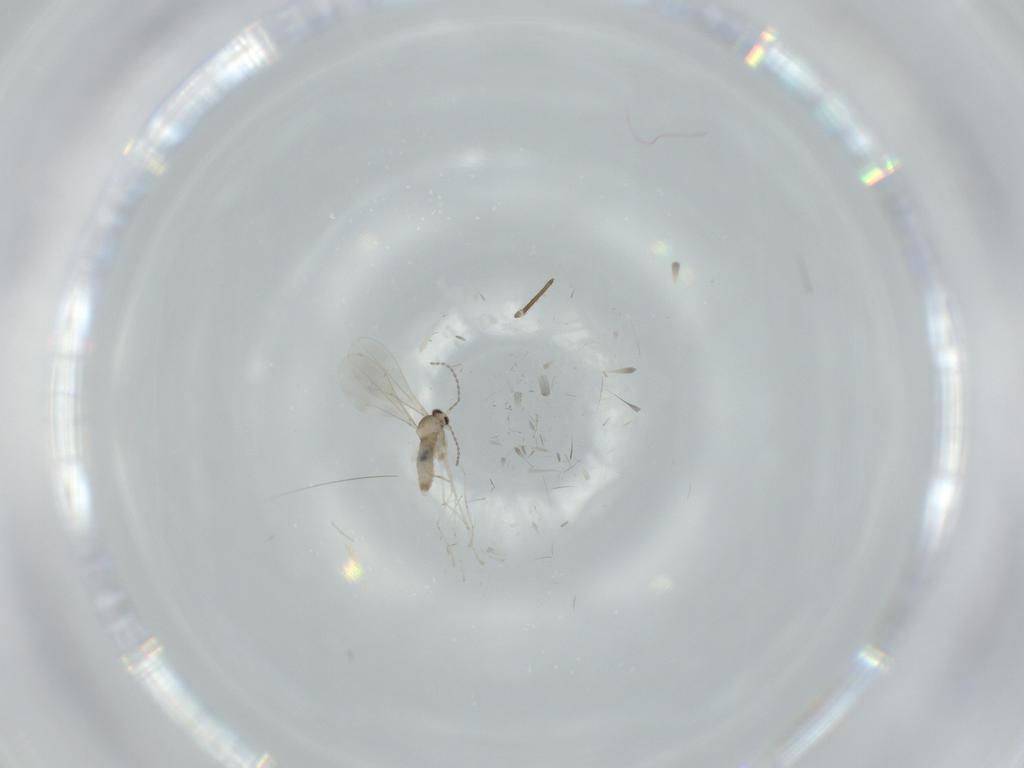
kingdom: Animalia
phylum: Arthropoda
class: Insecta
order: Diptera
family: Cecidomyiidae
